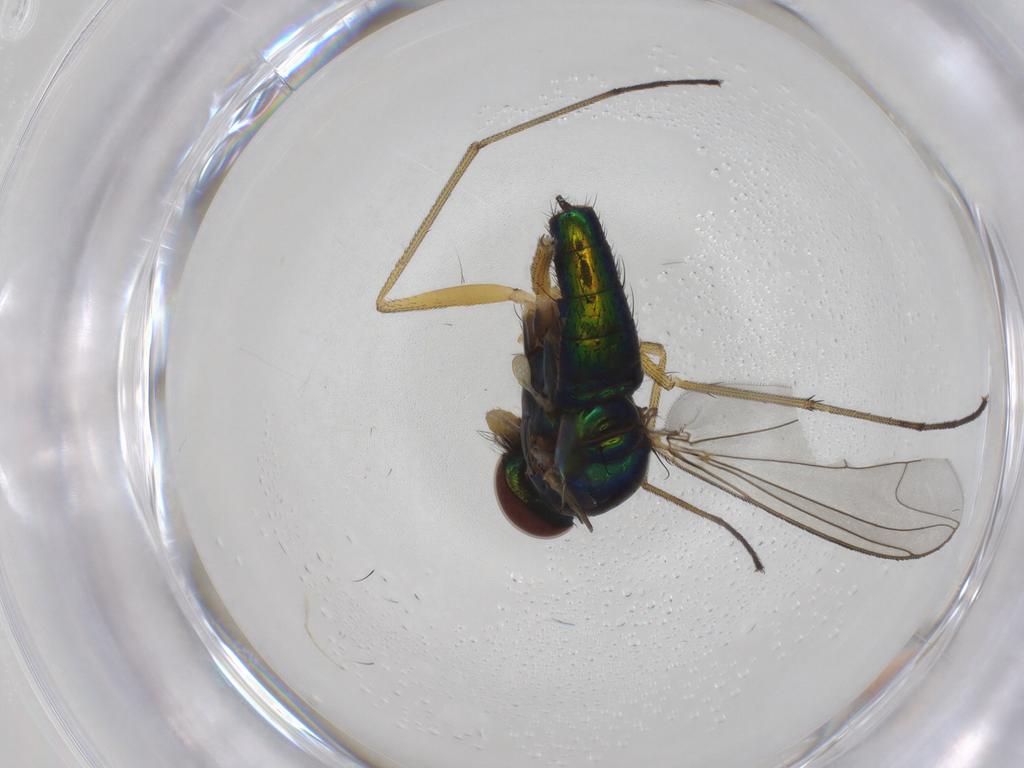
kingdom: Animalia
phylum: Arthropoda
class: Insecta
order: Diptera
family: Dolichopodidae
